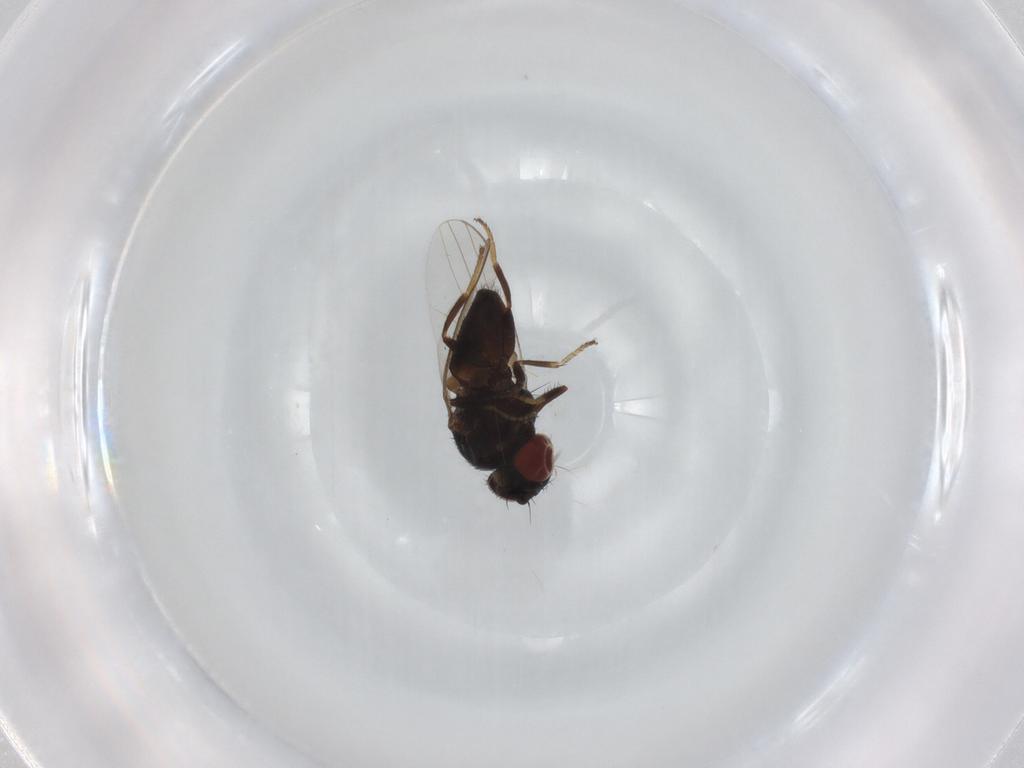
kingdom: Animalia
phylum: Arthropoda
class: Insecta
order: Diptera
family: Milichiidae
